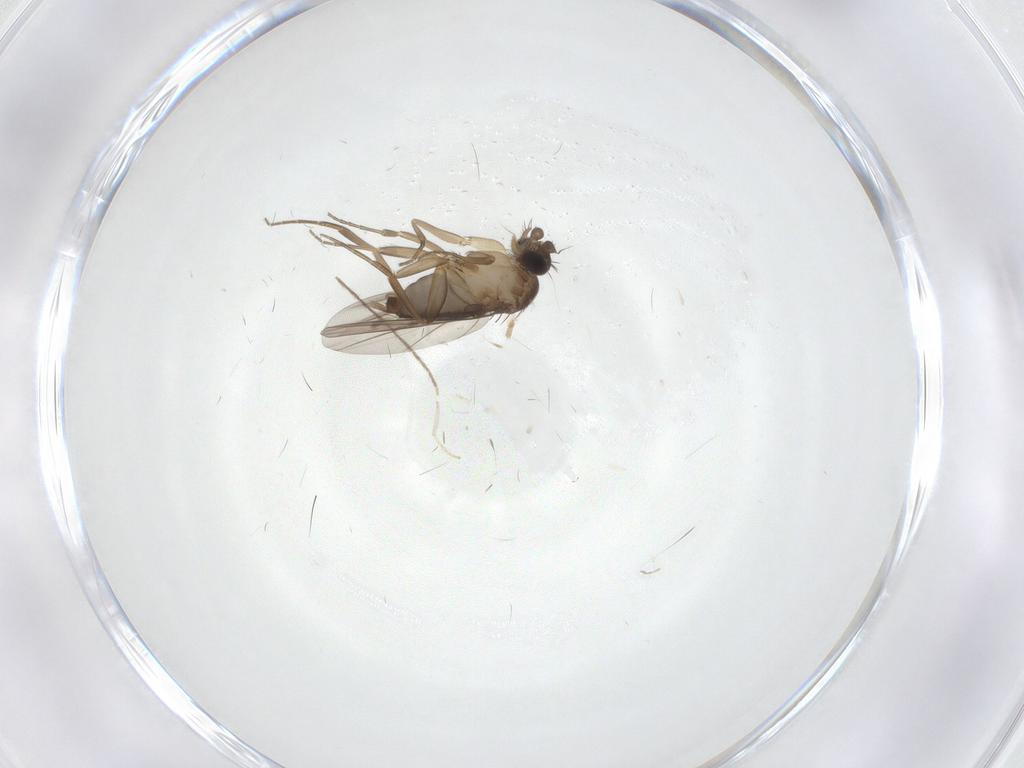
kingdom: Animalia
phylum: Arthropoda
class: Insecta
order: Diptera
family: Chironomidae
